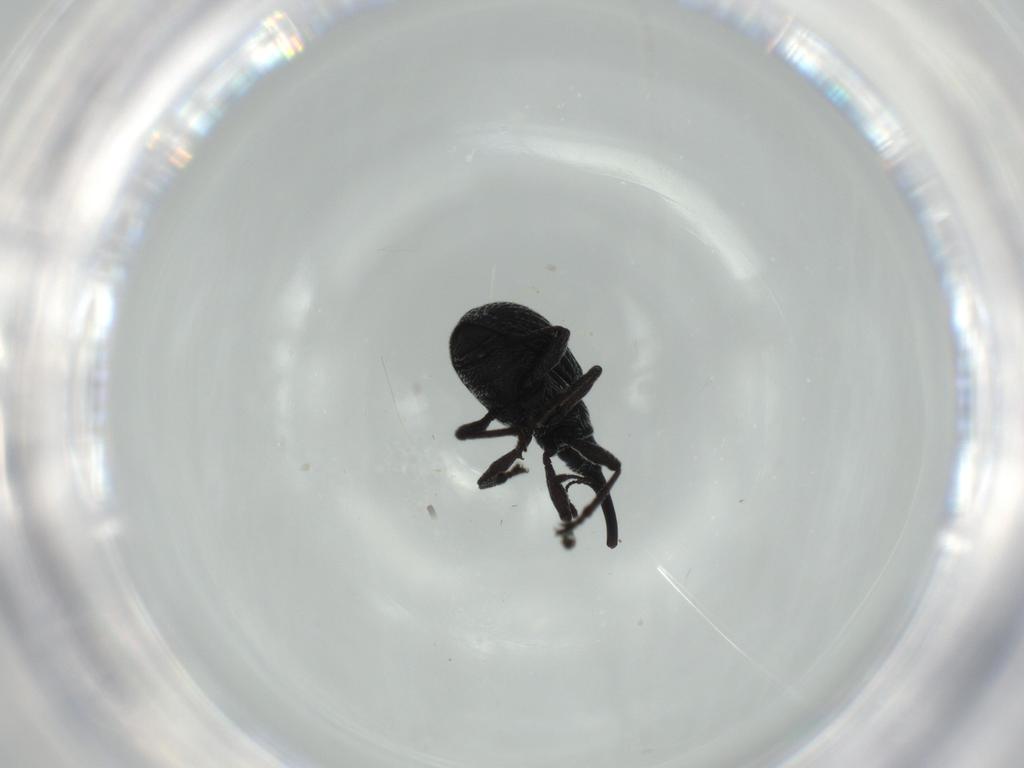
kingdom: Animalia
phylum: Arthropoda
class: Insecta
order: Coleoptera
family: Brentidae
